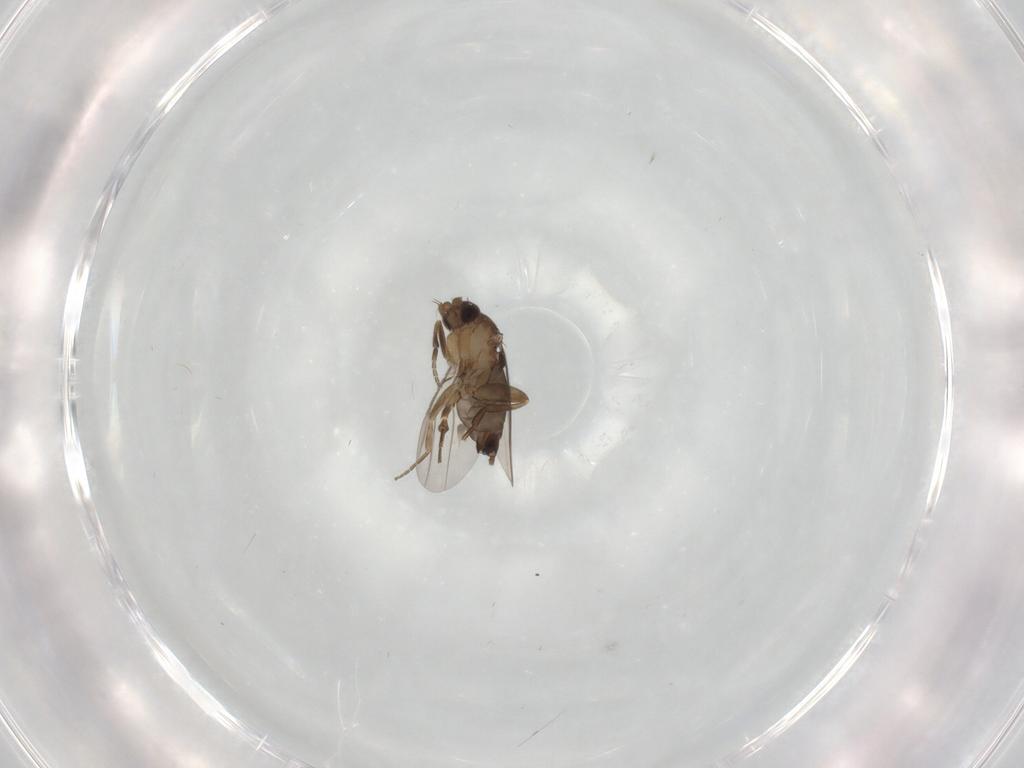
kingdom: Animalia
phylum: Arthropoda
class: Insecta
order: Diptera
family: Phoridae
